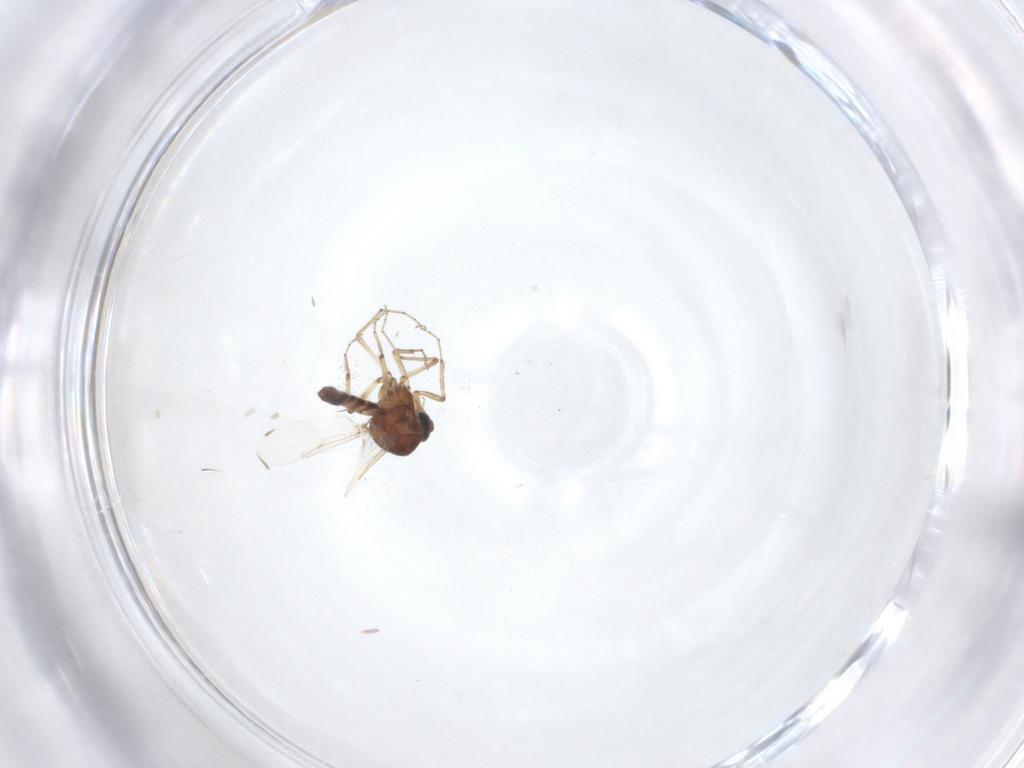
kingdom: Animalia
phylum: Arthropoda
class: Insecta
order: Diptera
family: Ceratopogonidae
